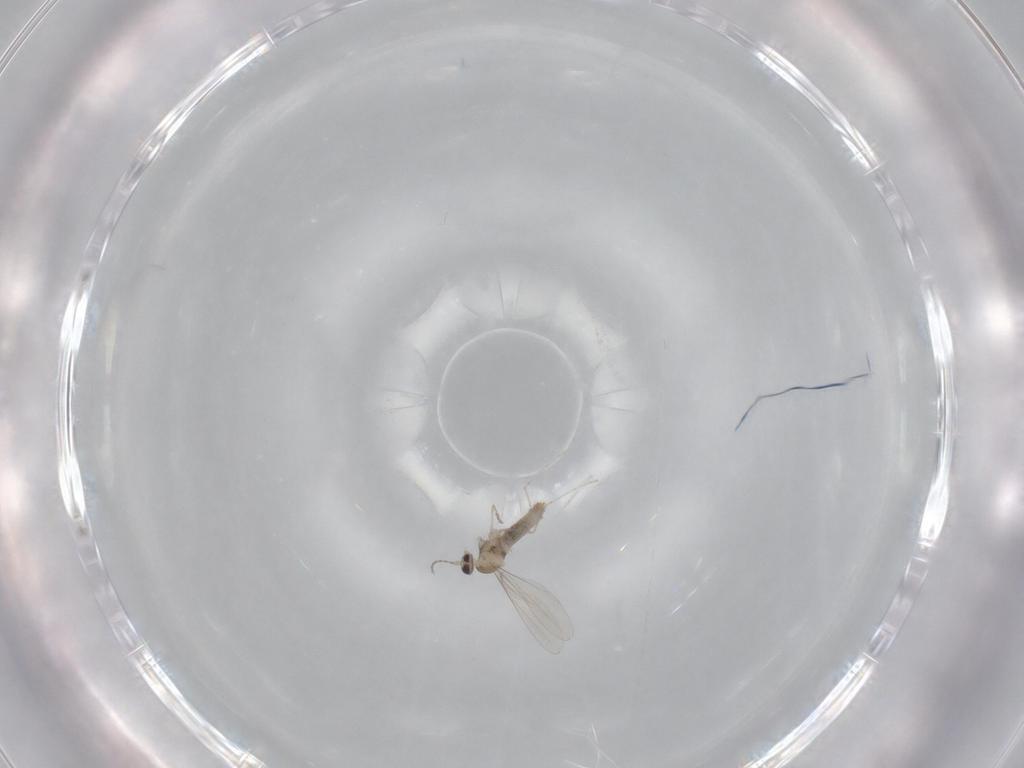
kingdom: Animalia
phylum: Arthropoda
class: Insecta
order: Diptera
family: Cecidomyiidae
